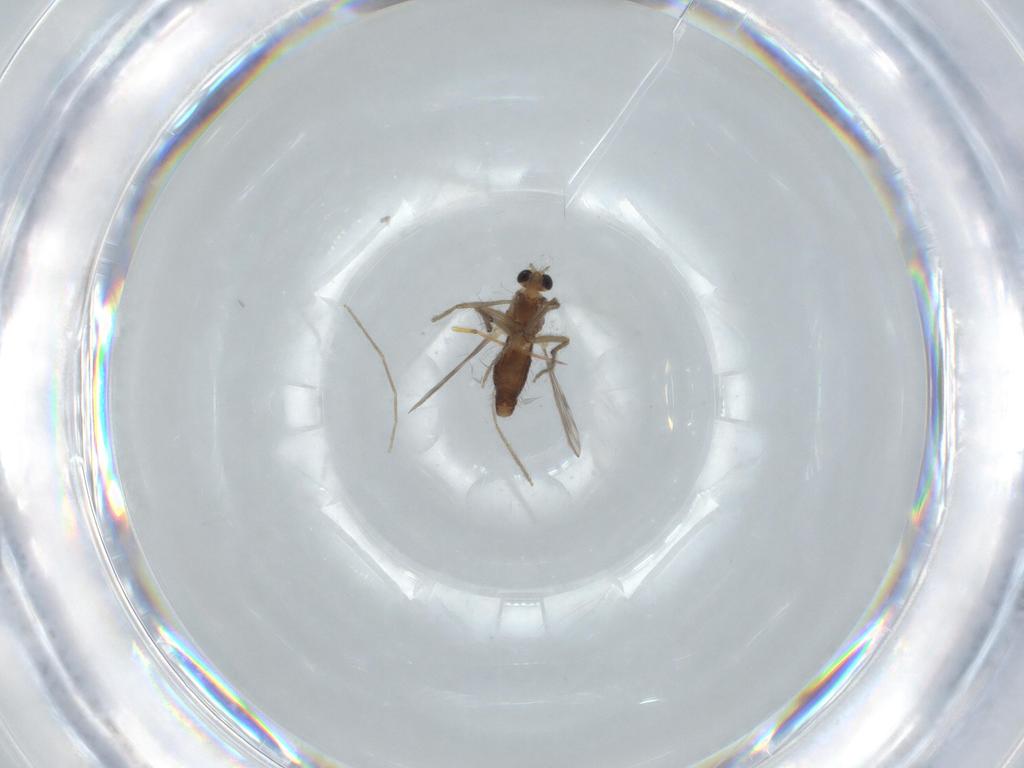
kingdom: Animalia
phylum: Arthropoda
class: Insecta
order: Diptera
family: Chironomidae
